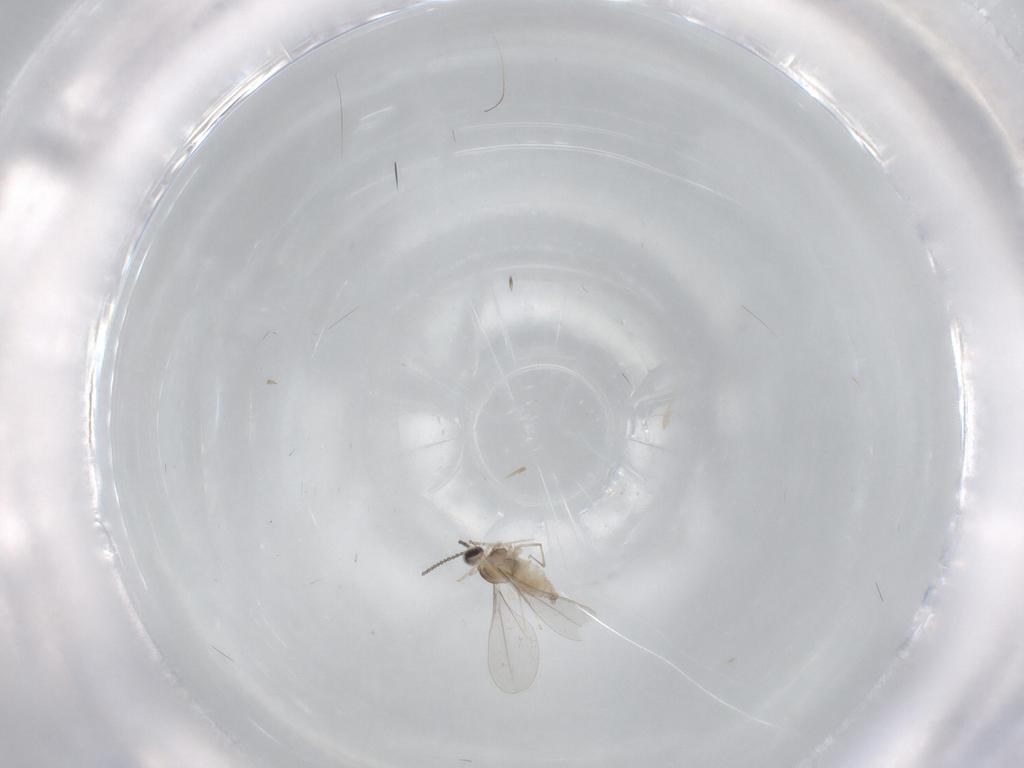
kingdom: Animalia
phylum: Arthropoda
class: Insecta
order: Diptera
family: Cecidomyiidae
